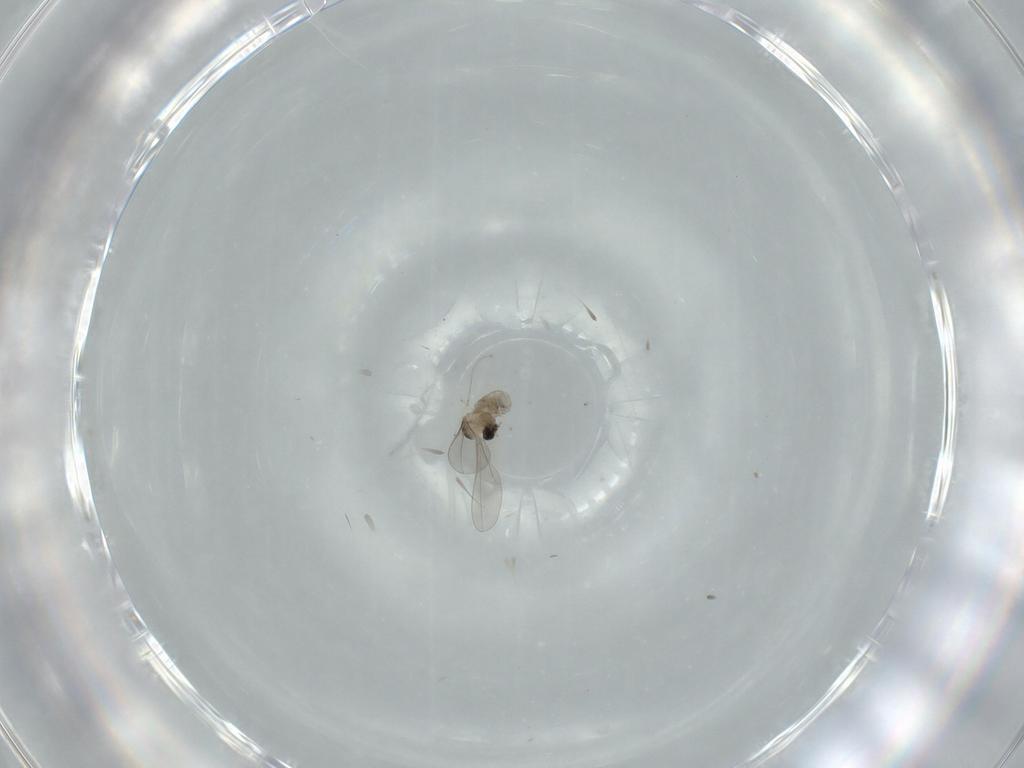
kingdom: Animalia
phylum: Arthropoda
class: Insecta
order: Diptera
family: Cecidomyiidae
